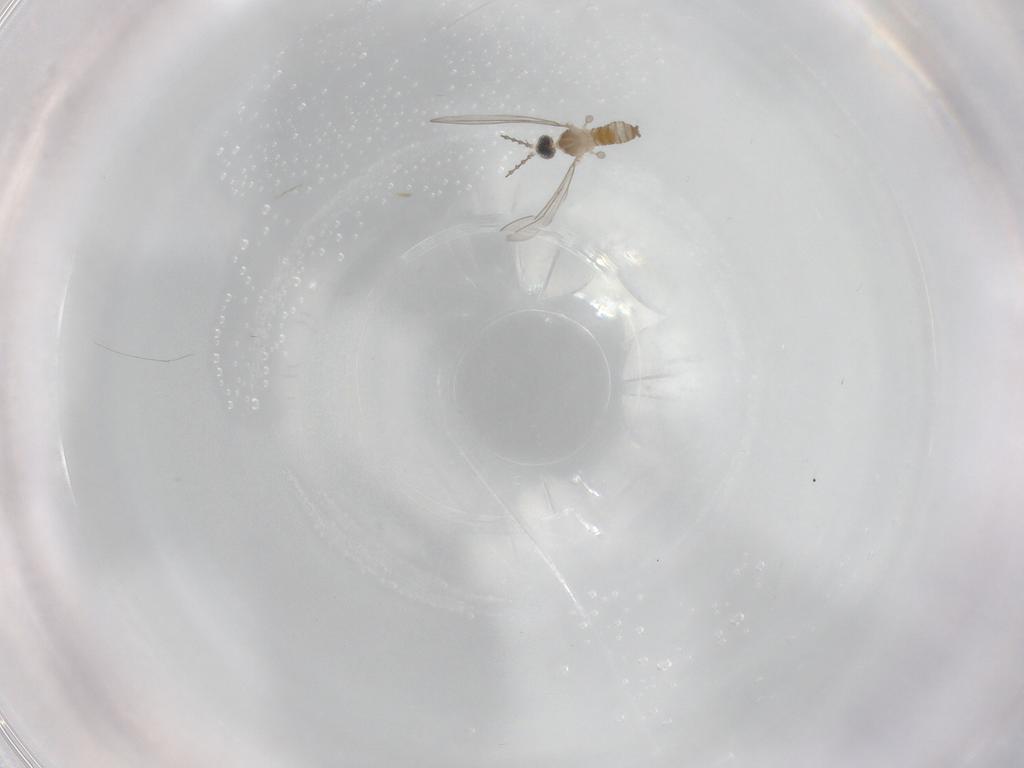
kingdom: Animalia
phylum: Arthropoda
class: Insecta
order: Diptera
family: Cecidomyiidae
